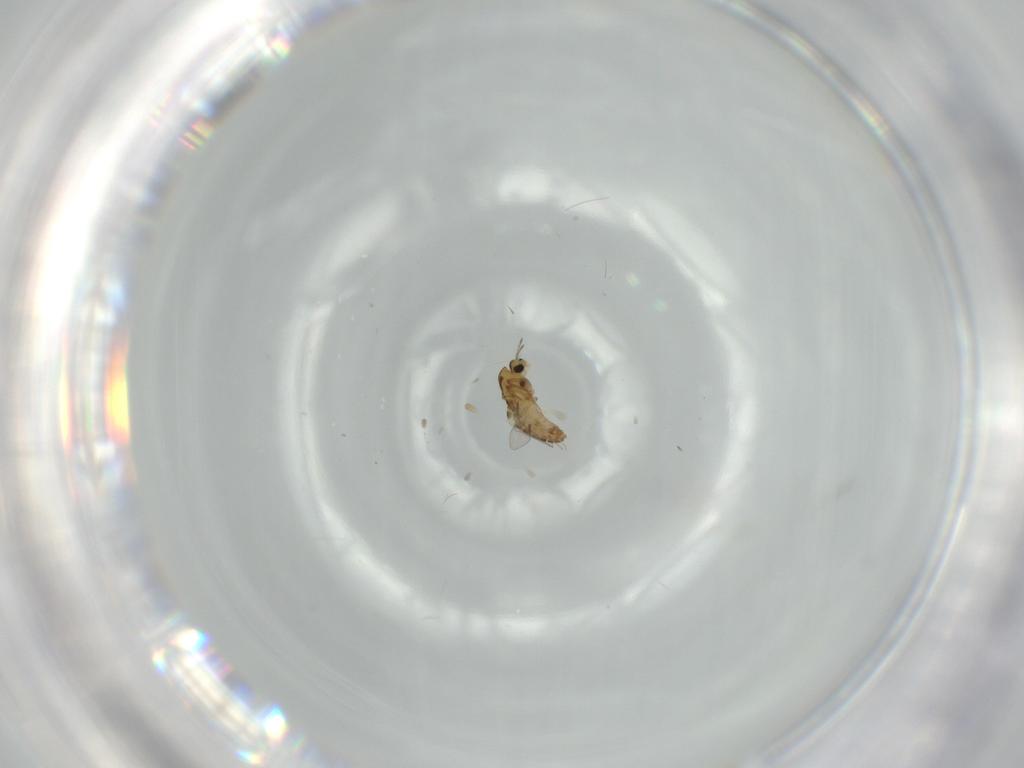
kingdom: Animalia
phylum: Arthropoda
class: Insecta
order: Diptera
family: Chironomidae
